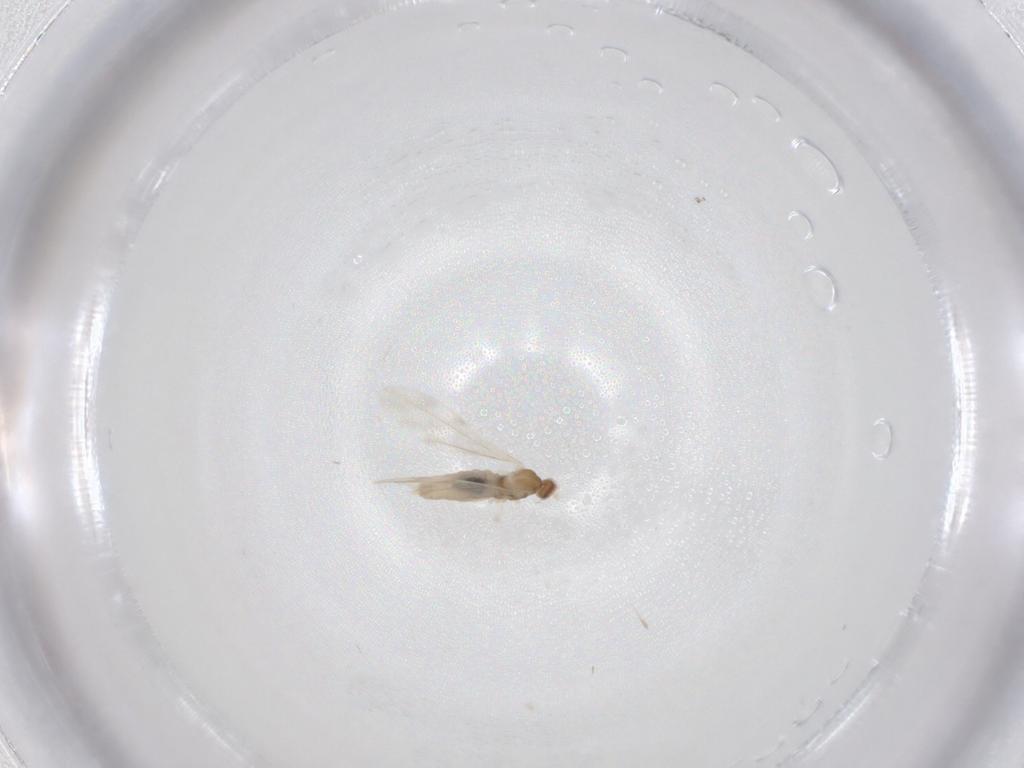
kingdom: Animalia
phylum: Arthropoda
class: Insecta
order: Diptera
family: Cecidomyiidae
